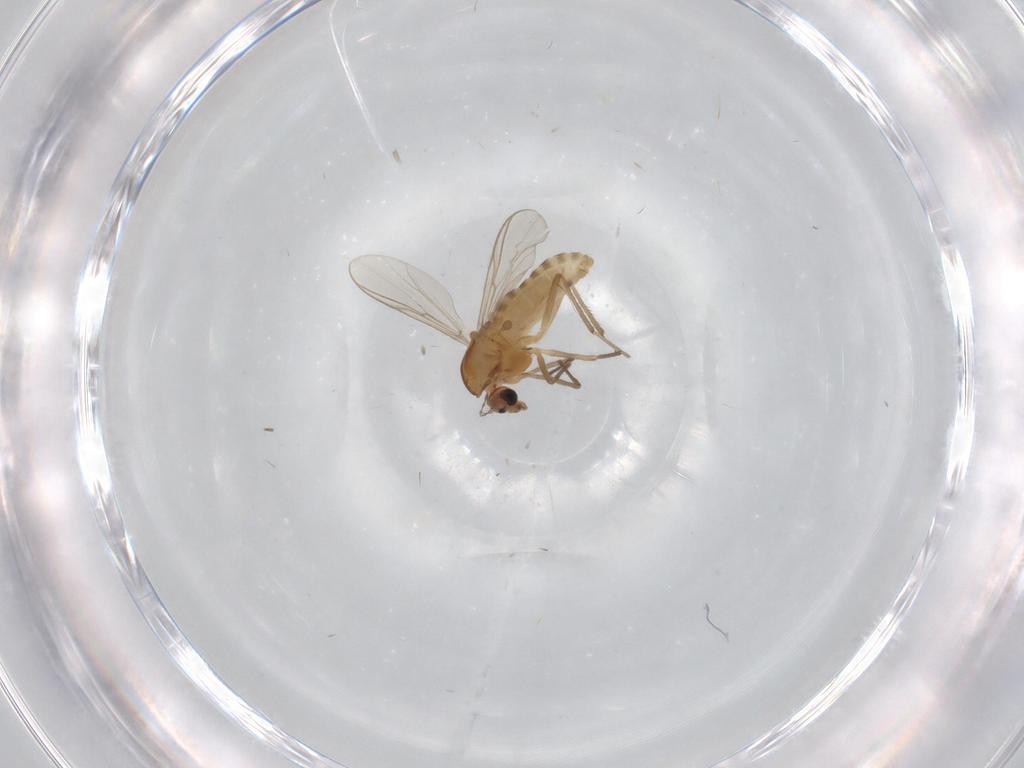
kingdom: Animalia
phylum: Arthropoda
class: Insecta
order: Diptera
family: Chironomidae
